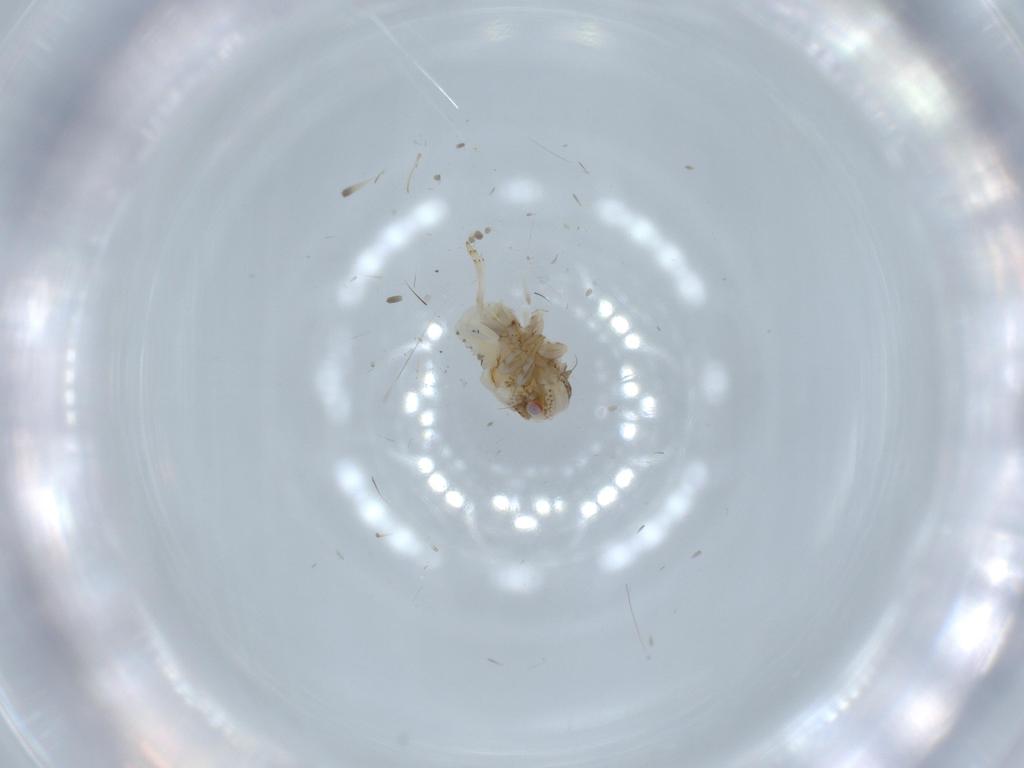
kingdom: Animalia
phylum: Arthropoda
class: Insecta
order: Hemiptera
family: Acanaloniidae
